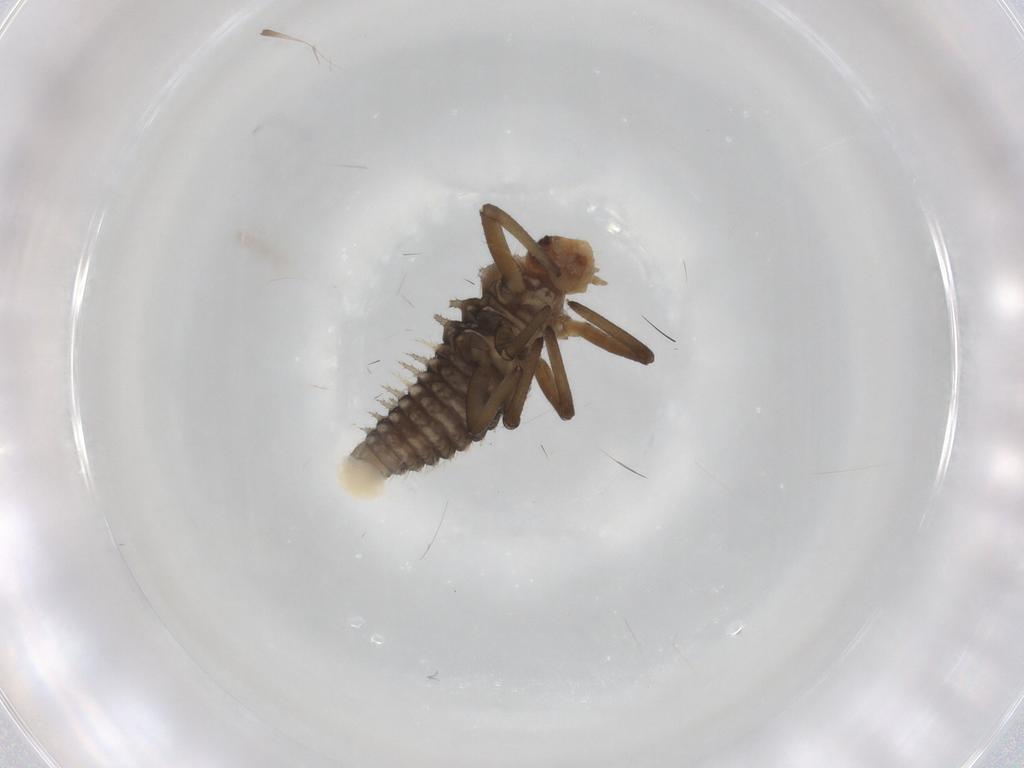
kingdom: Animalia
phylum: Arthropoda
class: Insecta
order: Coleoptera
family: Coccinellidae
